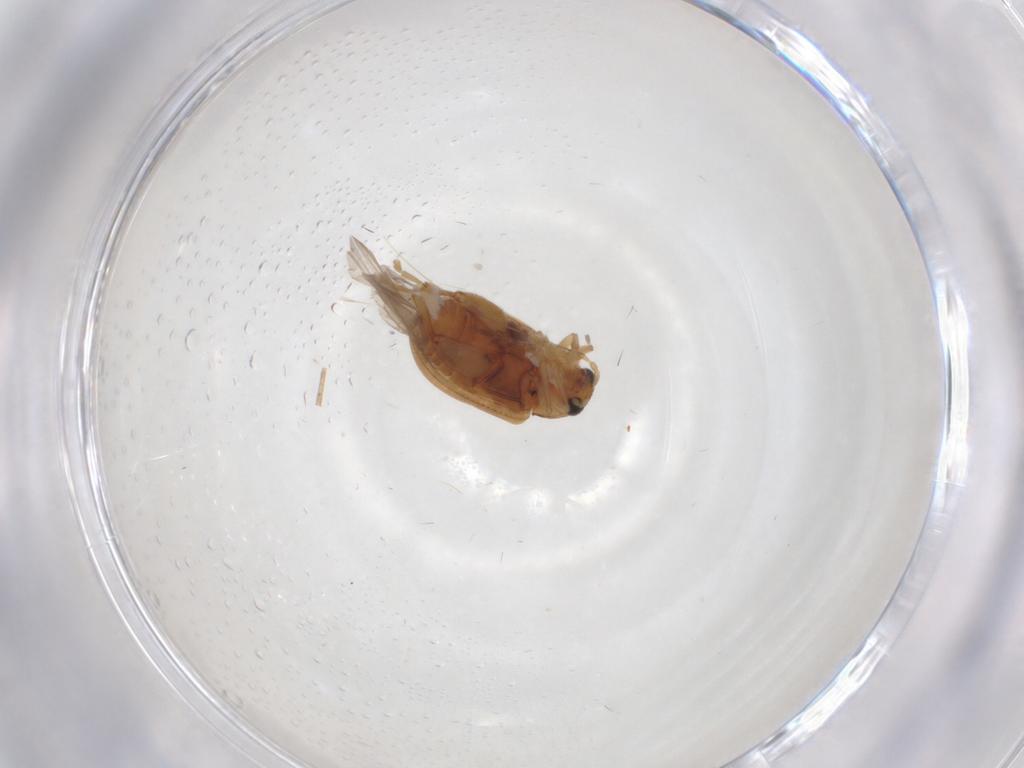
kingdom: Animalia
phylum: Arthropoda
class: Insecta
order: Coleoptera
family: Chrysomelidae
